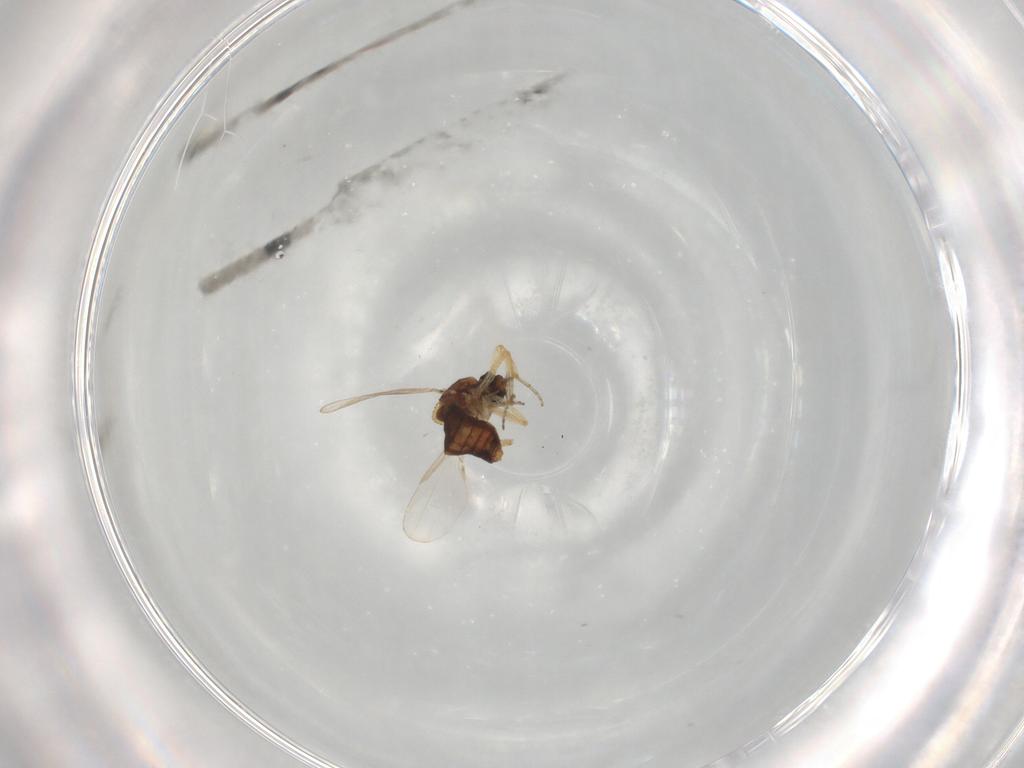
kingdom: Animalia
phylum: Arthropoda
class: Insecta
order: Diptera
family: Ceratopogonidae
